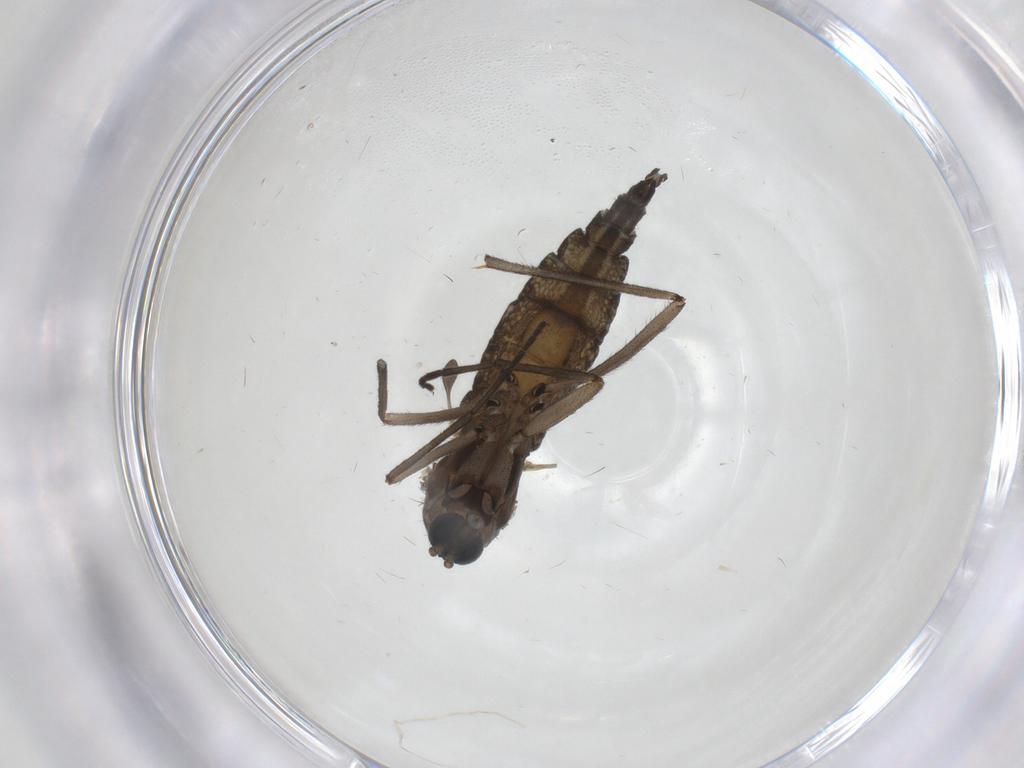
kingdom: Animalia
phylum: Arthropoda
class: Insecta
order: Diptera
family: Sciaridae
